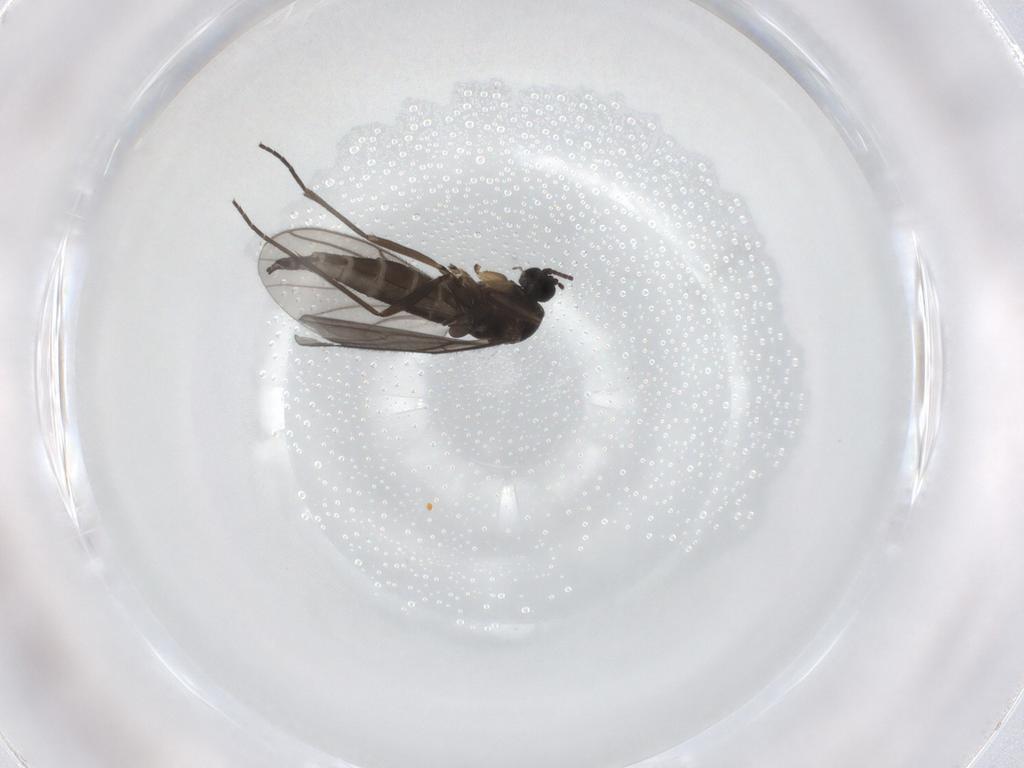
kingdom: Animalia
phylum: Arthropoda
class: Insecta
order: Diptera
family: Sciaridae
